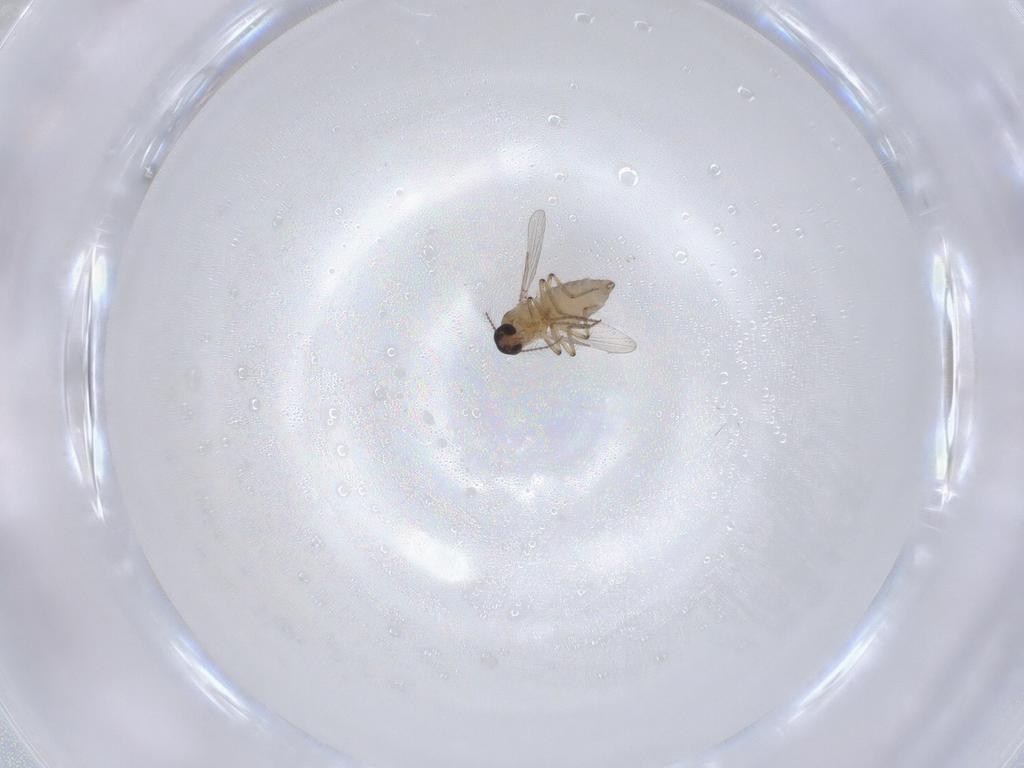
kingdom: Animalia
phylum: Arthropoda
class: Insecta
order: Diptera
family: Ceratopogonidae
